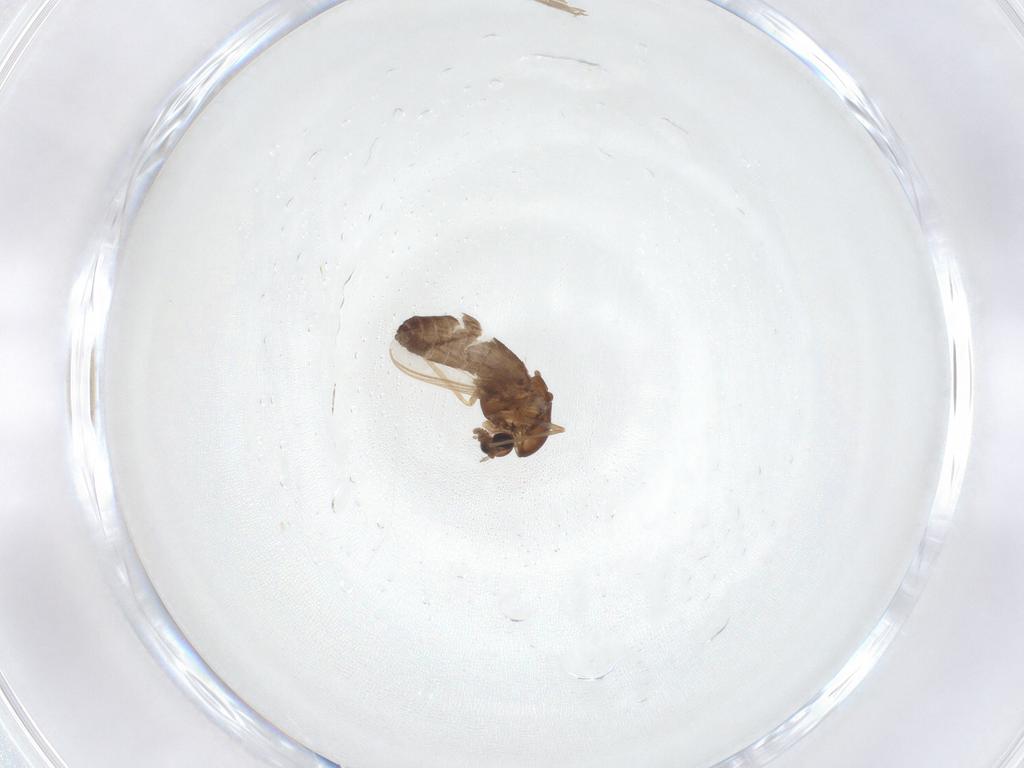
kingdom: Animalia
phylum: Arthropoda
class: Insecta
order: Diptera
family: Chironomidae
